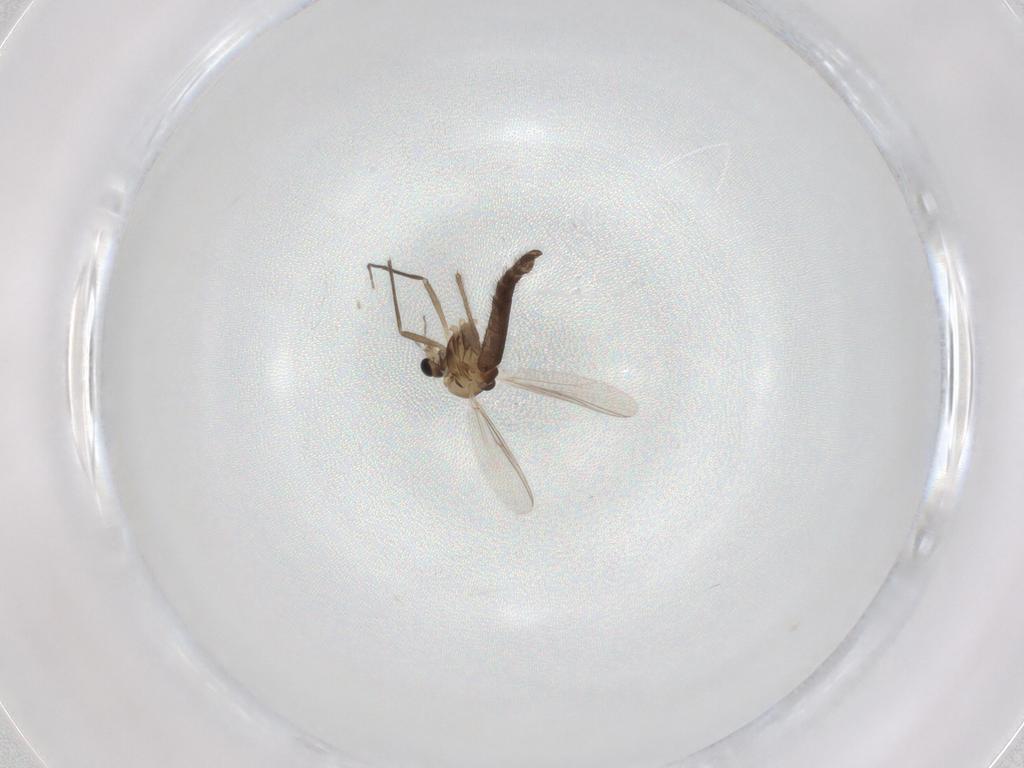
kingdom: Animalia
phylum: Arthropoda
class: Insecta
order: Diptera
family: Chironomidae
